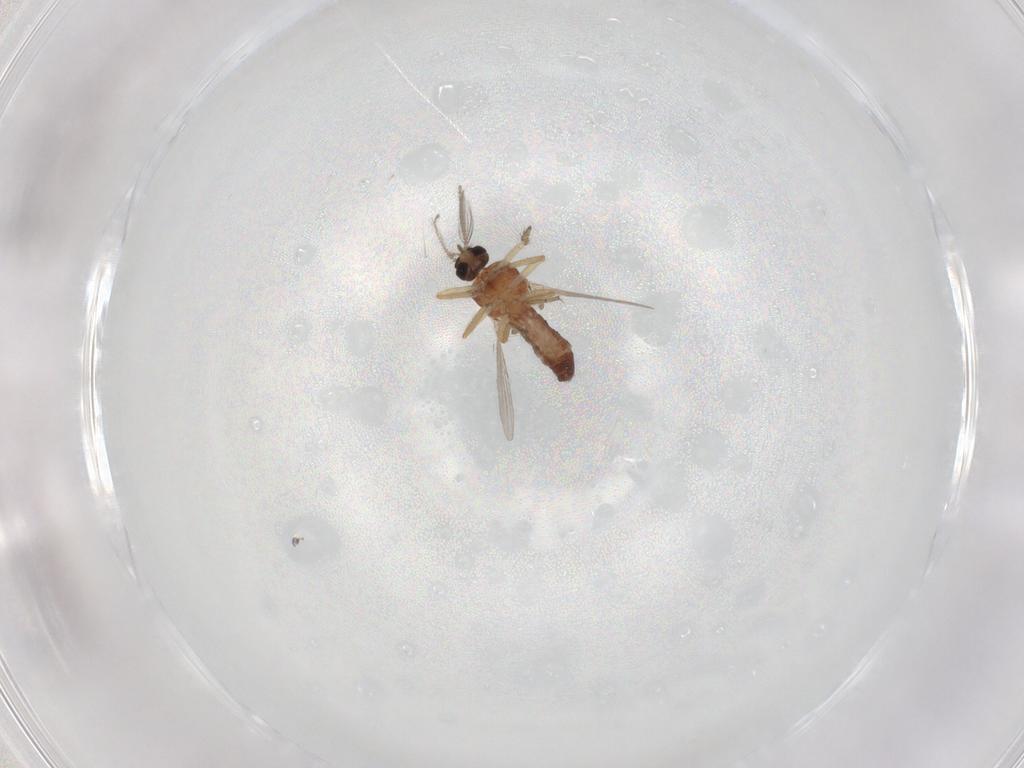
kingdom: Animalia
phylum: Arthropoda
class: Insecta
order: Diptera
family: Ceratopogonidae
